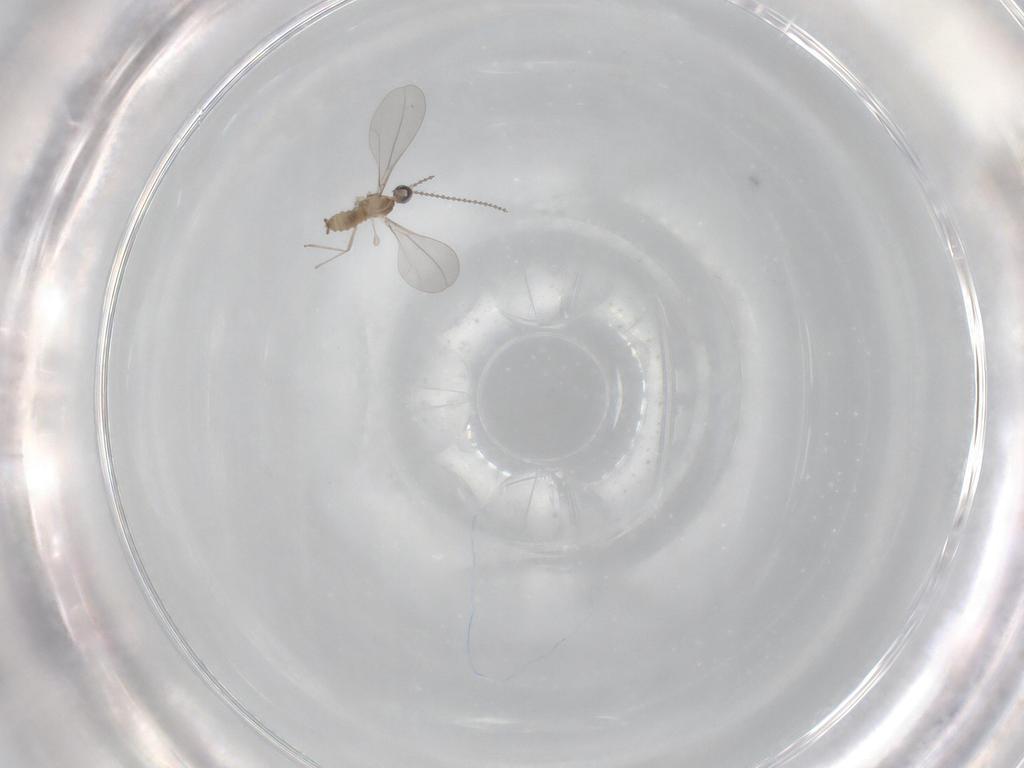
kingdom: Animalia
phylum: Arthropoda
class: Insecta
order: Diptera
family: Cecidomyiidae
